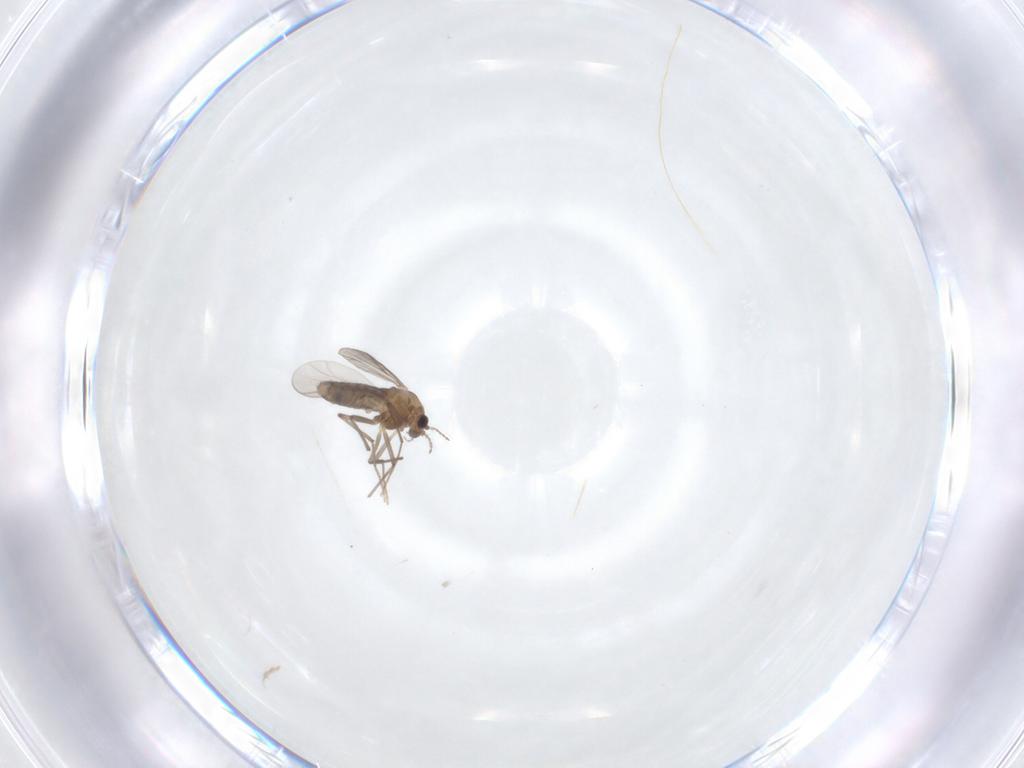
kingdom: Animalia
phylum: Arthropoda
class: Insecta
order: Diptera
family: Chironomidae
